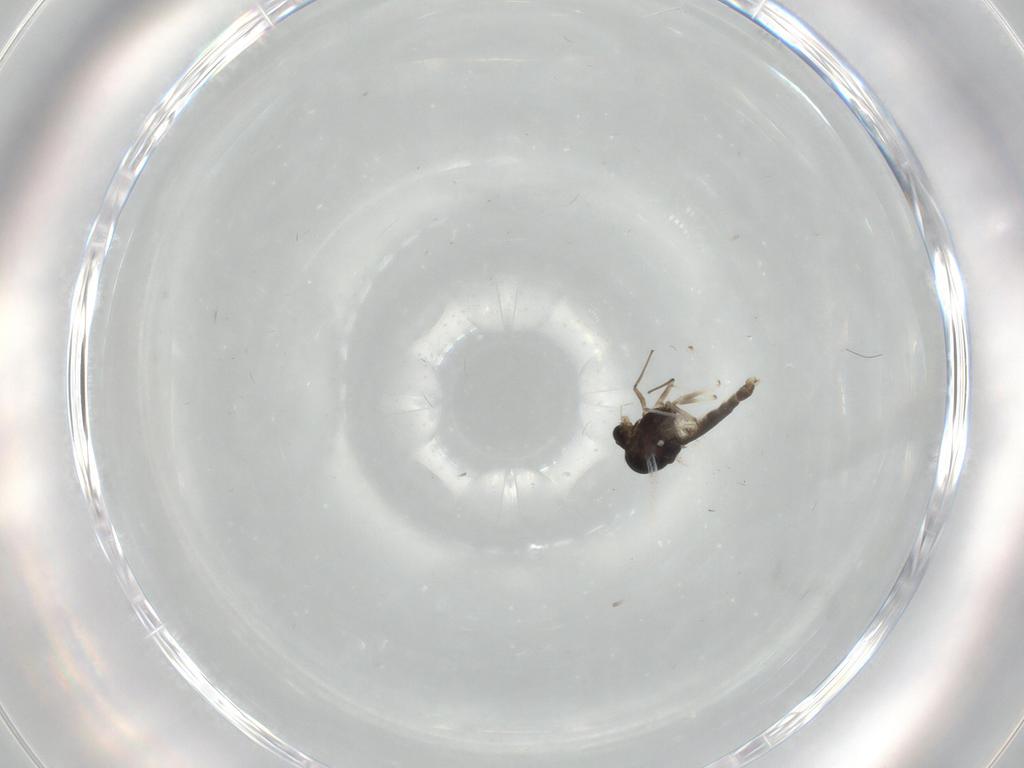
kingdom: Animalia
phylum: Arthropoda
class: Insecta
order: Diptera
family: Chironomidae
